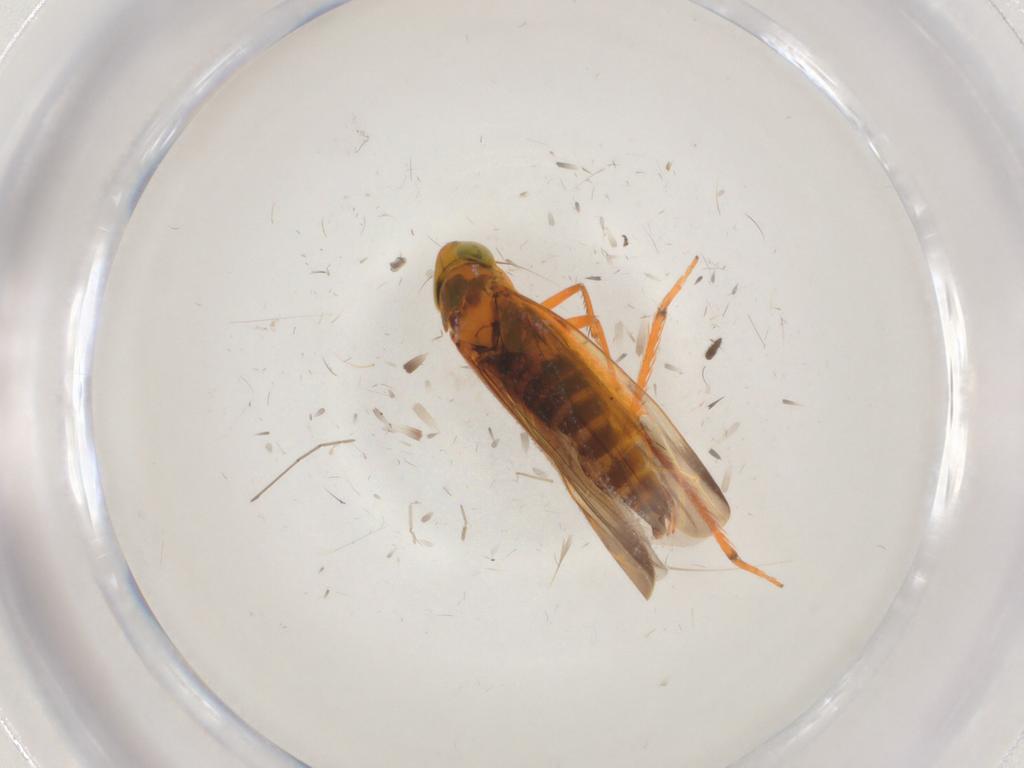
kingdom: Animalia
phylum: Arthropoda
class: Insecta
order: Hemiptera
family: Cicadellidae
